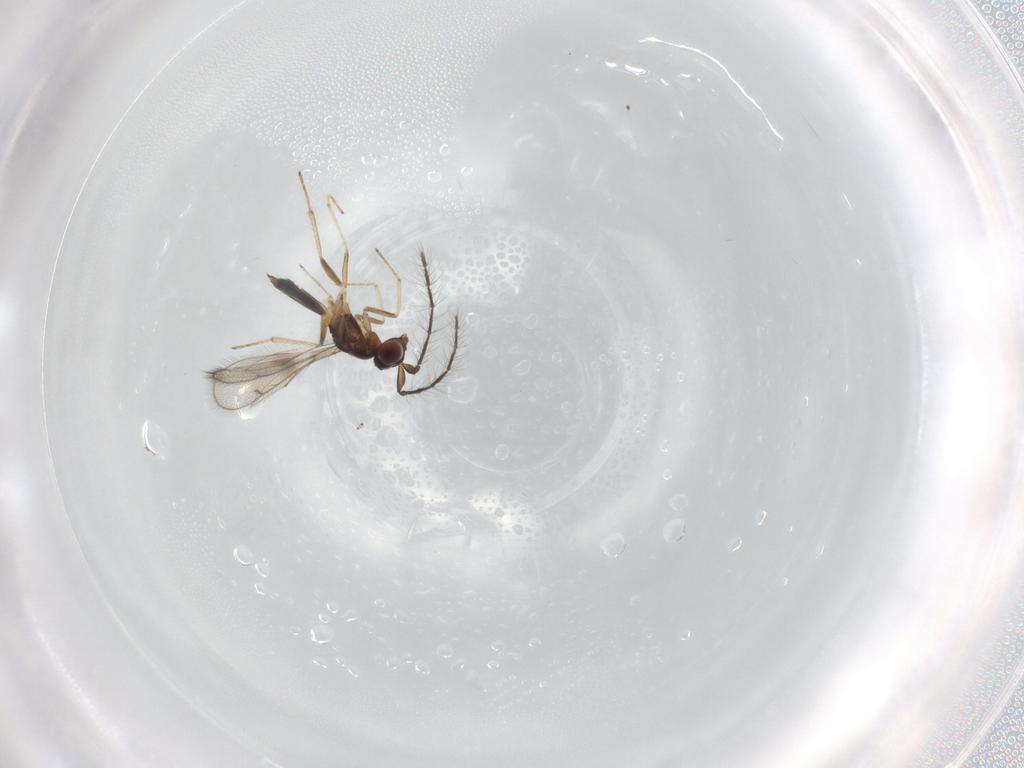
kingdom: Animalia
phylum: Arthropoda
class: Insecta
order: Hymenoptera
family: Eulophidae
